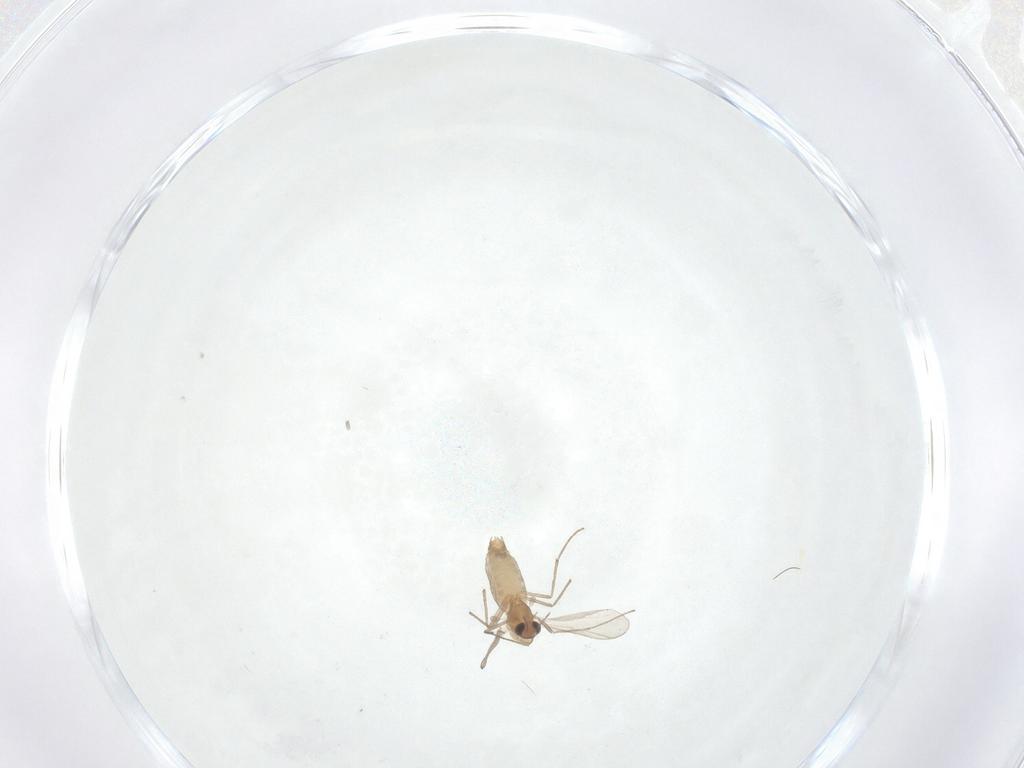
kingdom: Animalia
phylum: Arthropoda
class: Insecta
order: Diptera
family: Chironomidae
